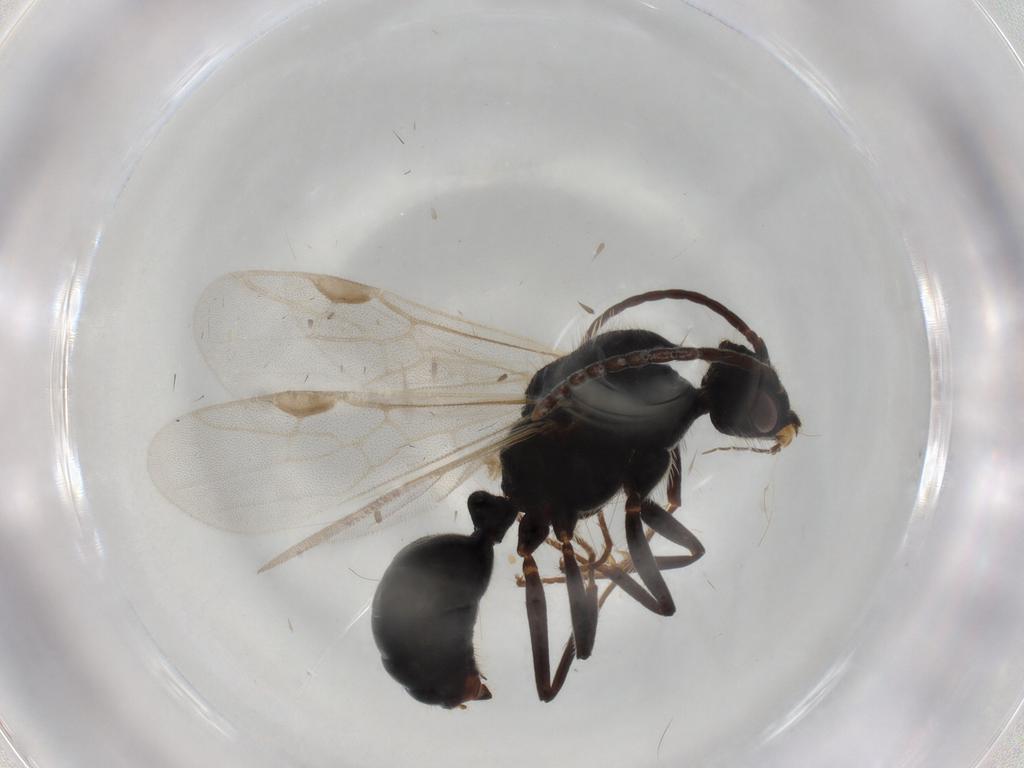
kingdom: Animalia
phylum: Arthropoda
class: Insecta
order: Hymenoptera
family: Formicidae
